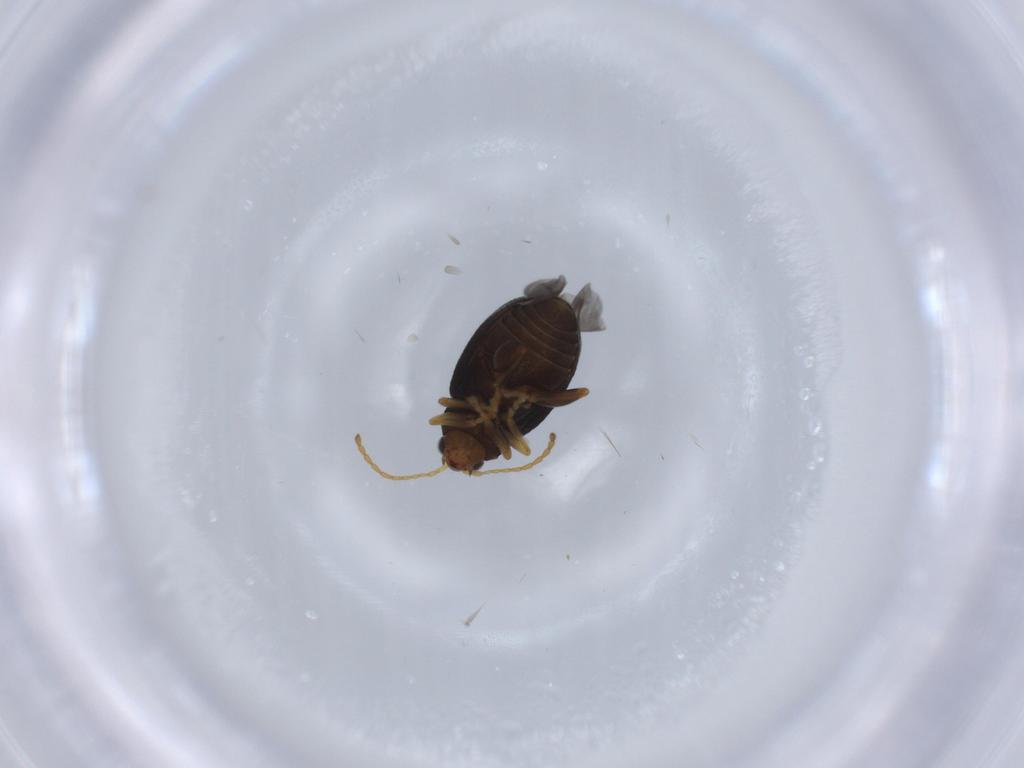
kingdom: Animalia
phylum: Arthropoda
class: Insecta
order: Coleoptera
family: Chrysomelidae
